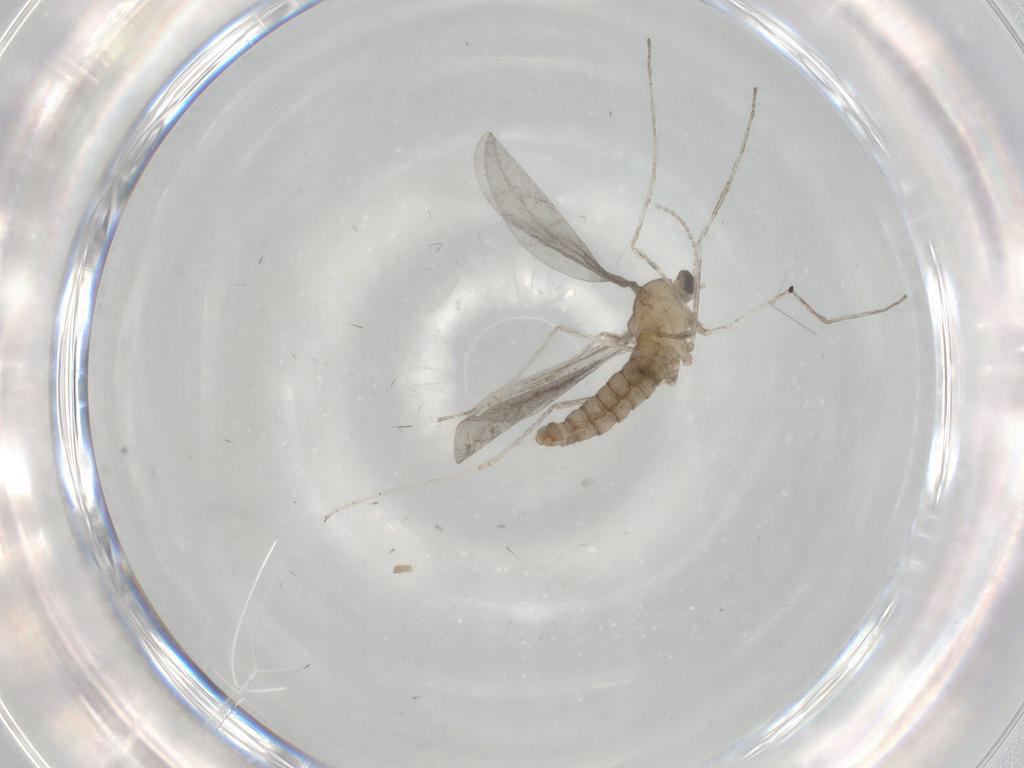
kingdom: Animalia
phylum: Arthropoda
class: Insecta
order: Diptera
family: Cecidomyiidae
